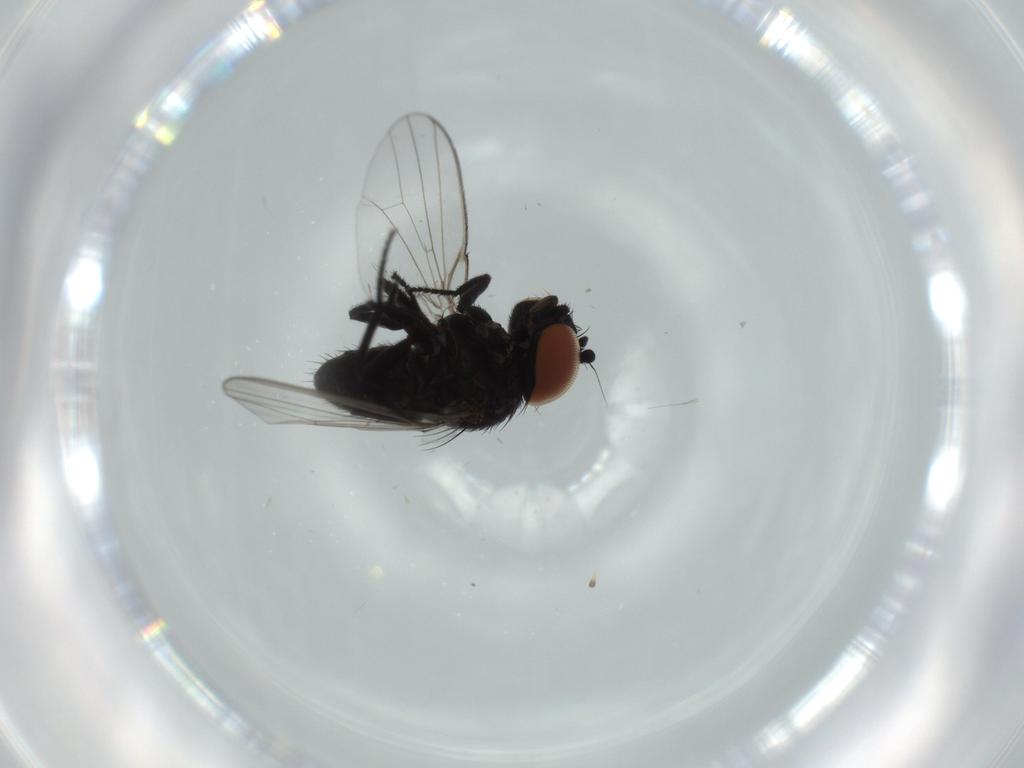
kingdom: Animalia
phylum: Arthropoda
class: Insecta
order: Diptera
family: Milichiidae
